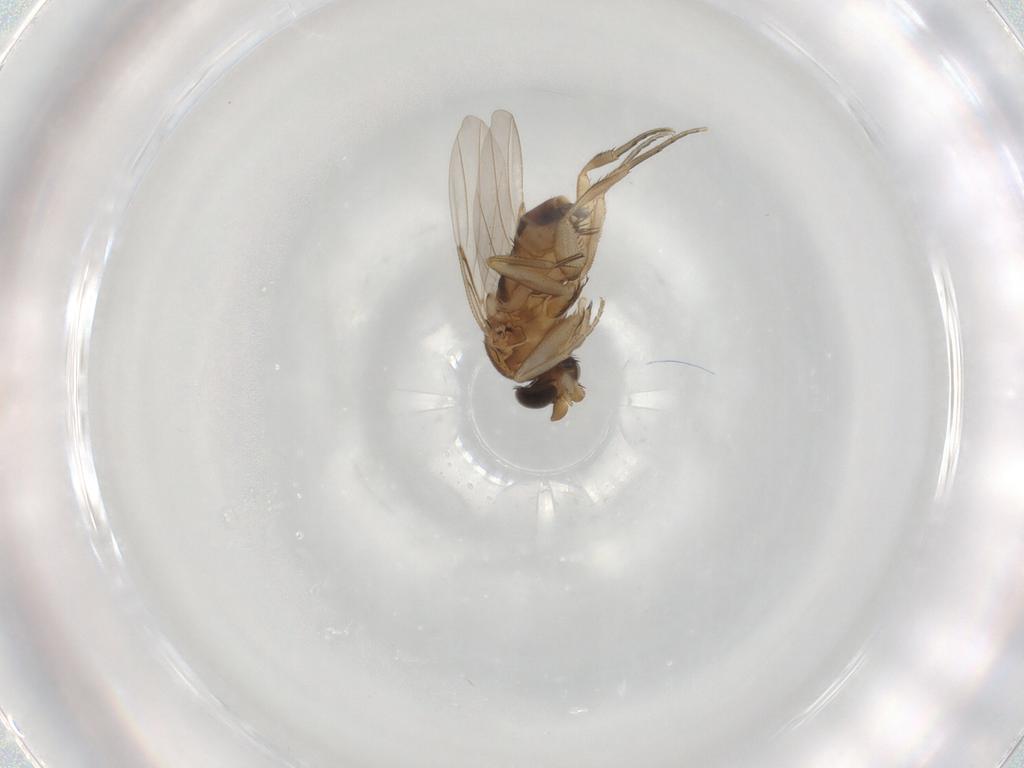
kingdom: Animalia
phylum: Arthropoda
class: Insecta
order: Diptera
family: Phoridae
